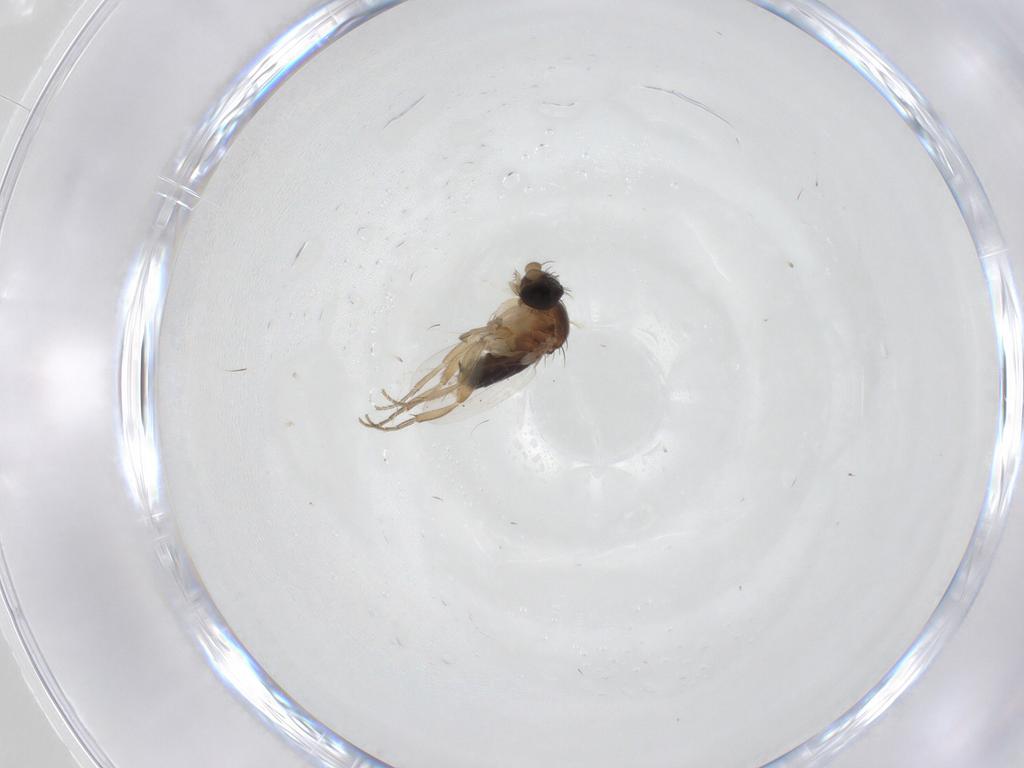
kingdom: Animalia
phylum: Arthropoda
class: Insecta
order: Diptera
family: Phoridae
